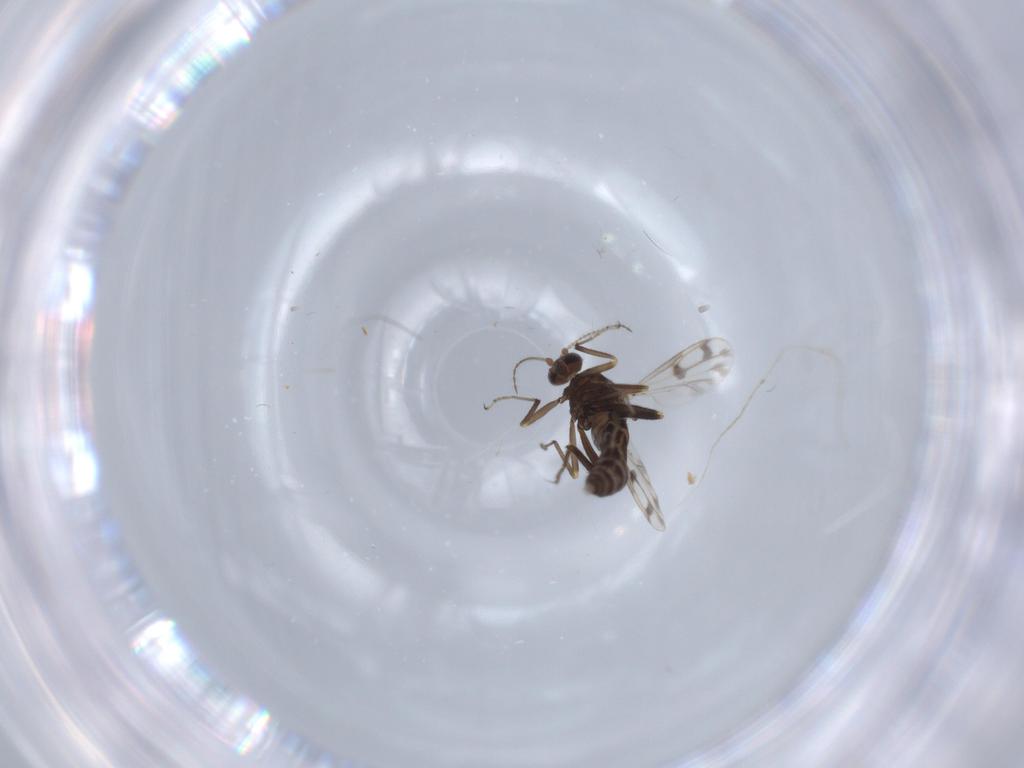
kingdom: Animalia
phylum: Arthropoda
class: Insecta
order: Diptera
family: Ceratopogonidae
